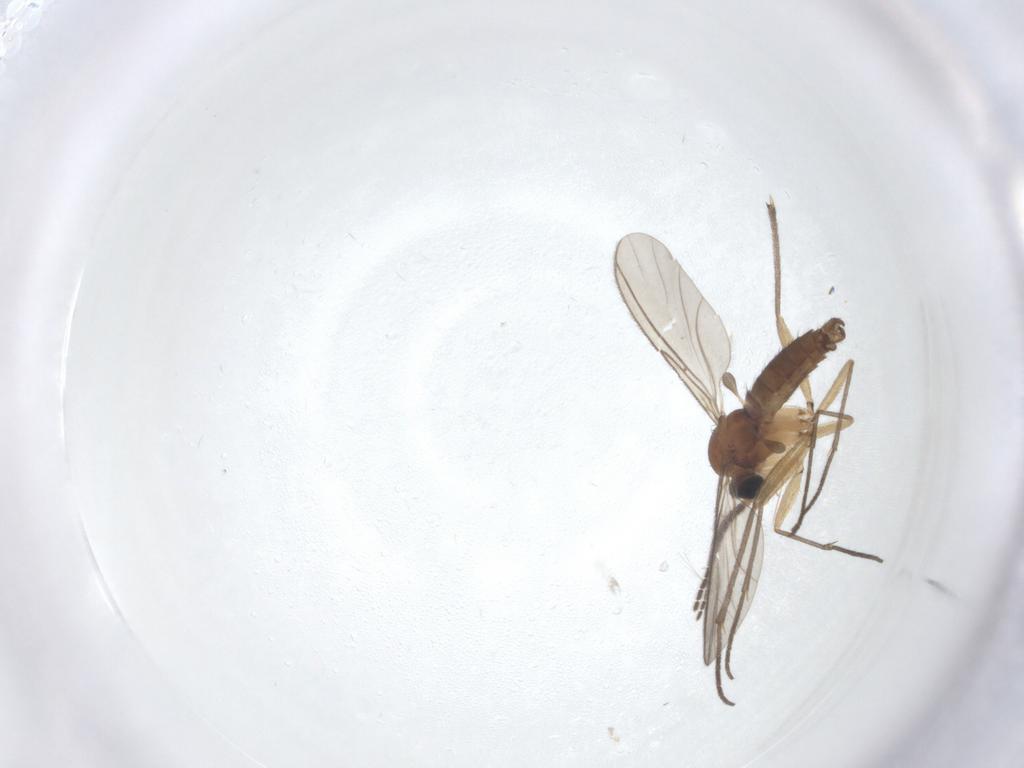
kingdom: Animalia
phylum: Arthropoda
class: Insecta
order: Diptera
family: Sciaridae
